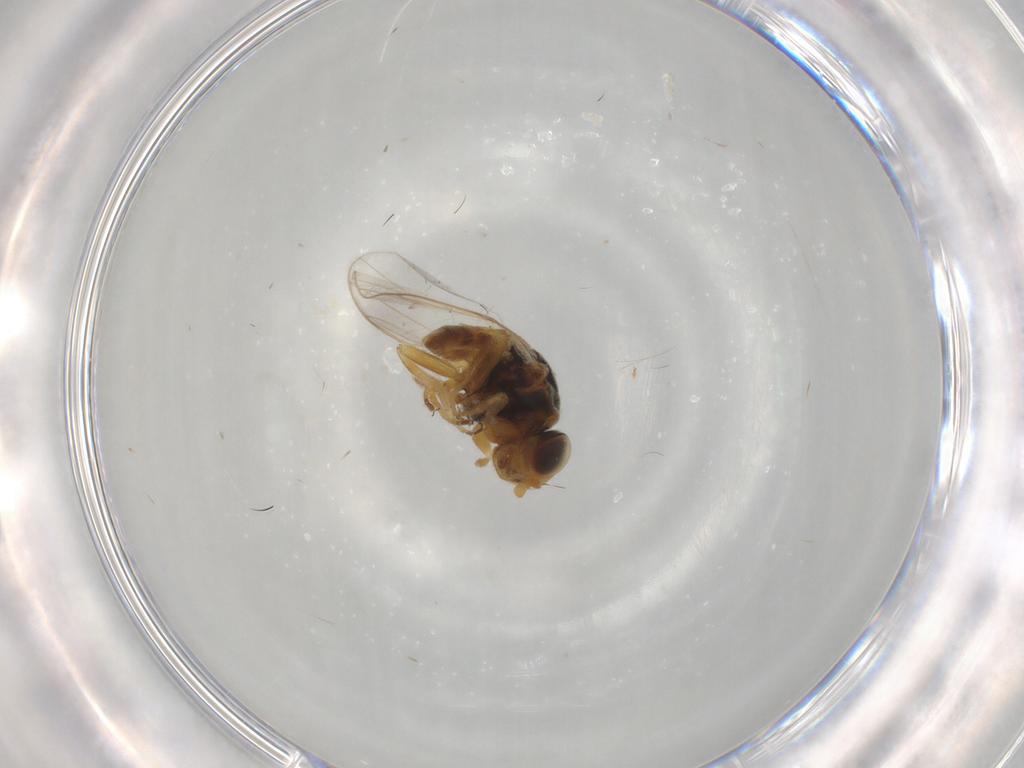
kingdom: Animalia
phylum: Arthropoda
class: Insecta
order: Diptera
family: Chloropidae
